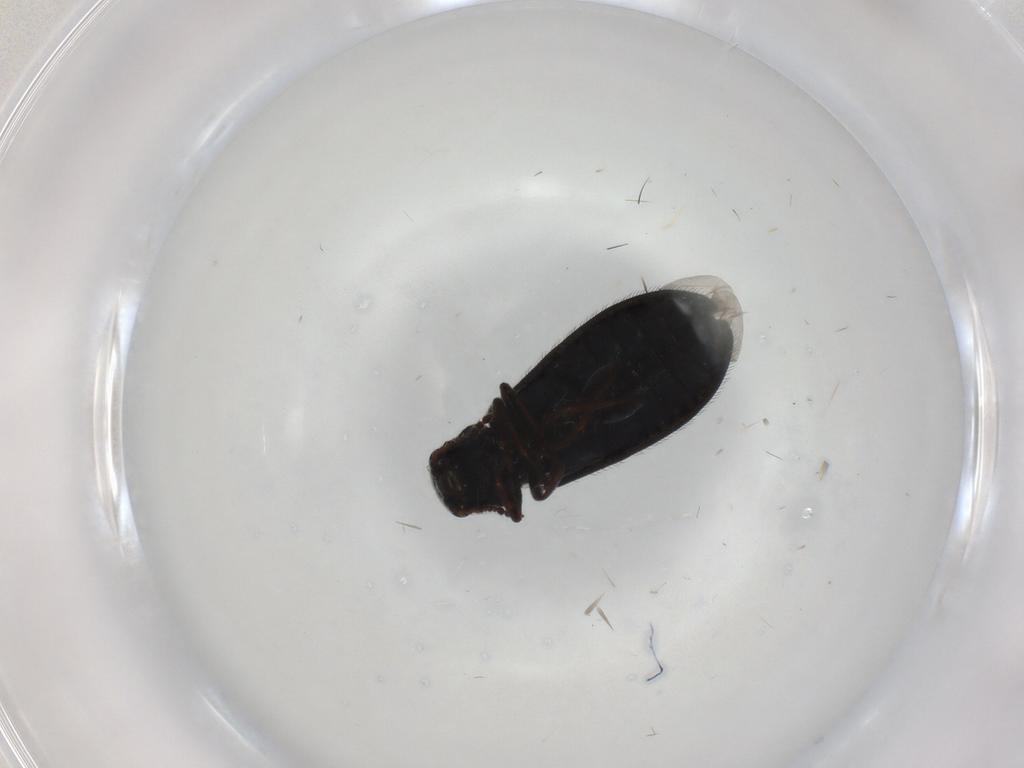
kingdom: Animalia
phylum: Arthropoda
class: Insecta
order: Coleoptera
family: Melyridae
